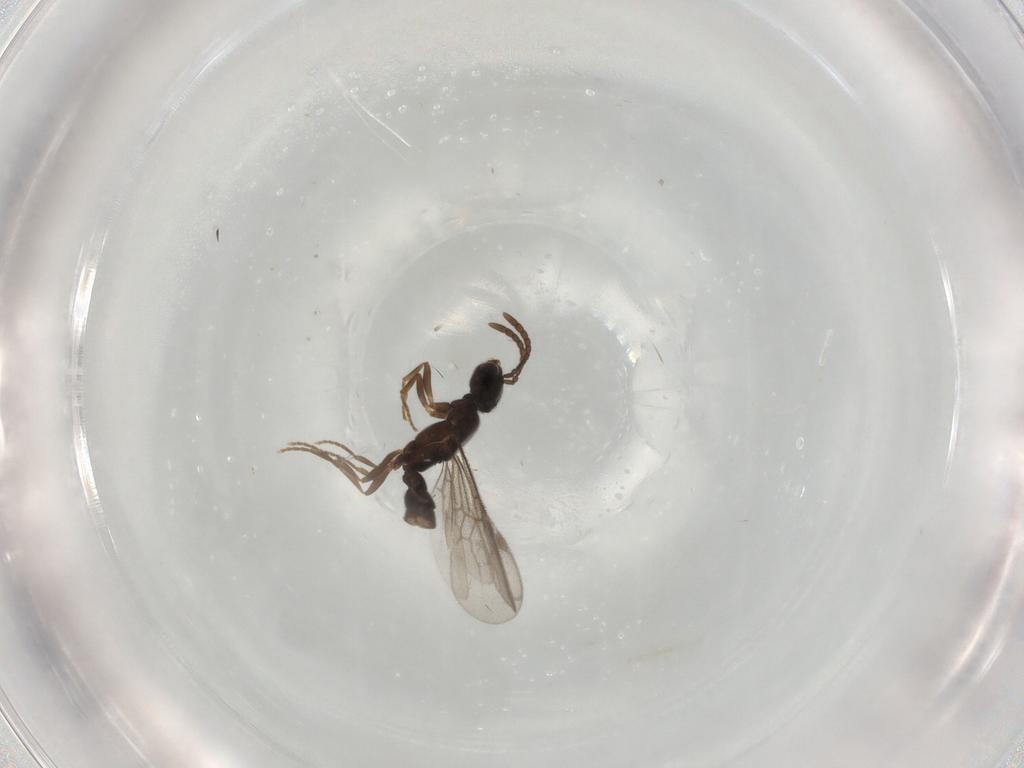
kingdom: Animalia
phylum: Arthropoda
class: Insecta
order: Hymenoptera
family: Formicidae
